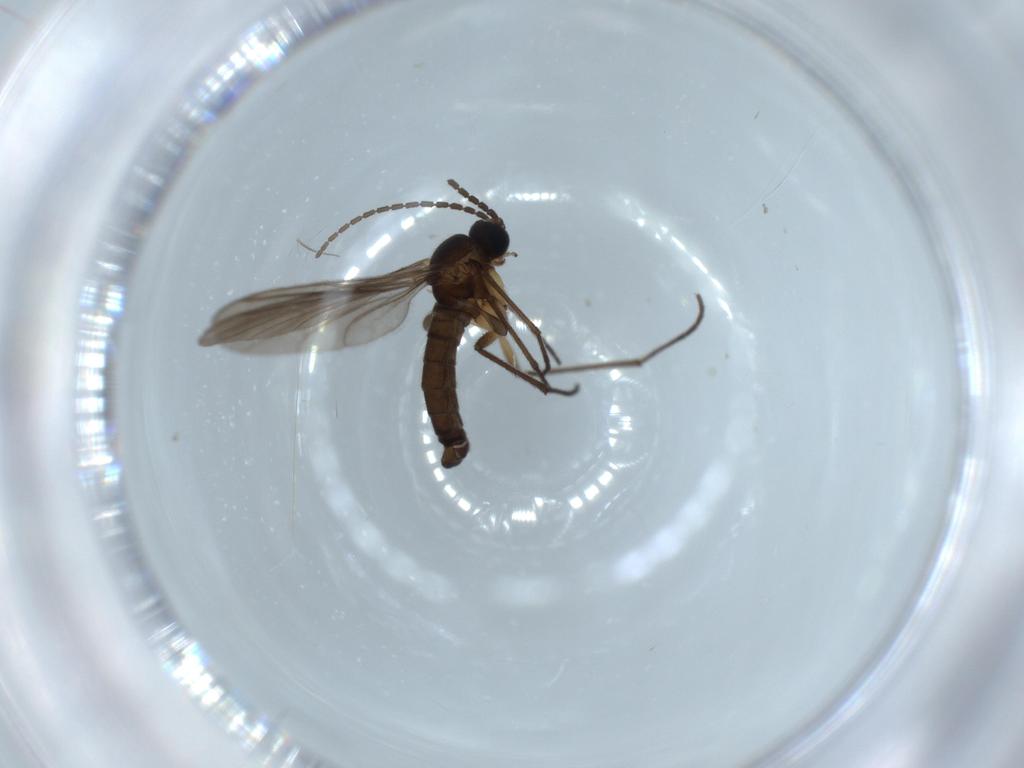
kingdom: Animalia
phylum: Arthropoda
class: Insecta
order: Diptera
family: Chironomidae
